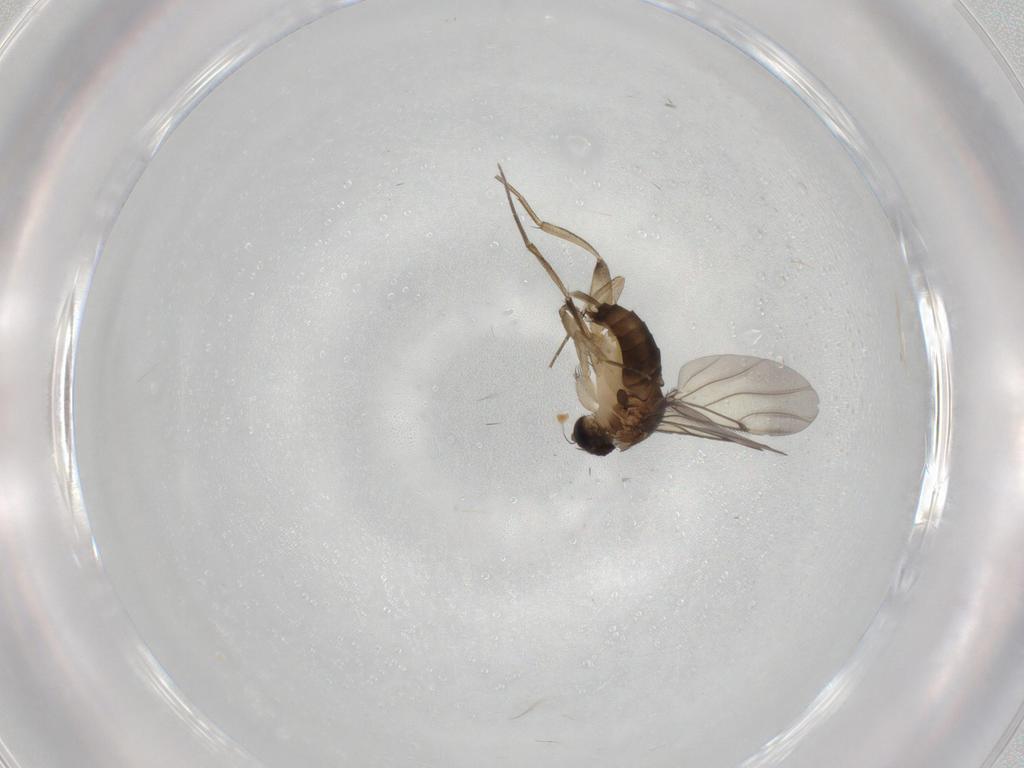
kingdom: Animalia
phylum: Arthropoda
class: Insecta
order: Diptera
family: Phoridae
